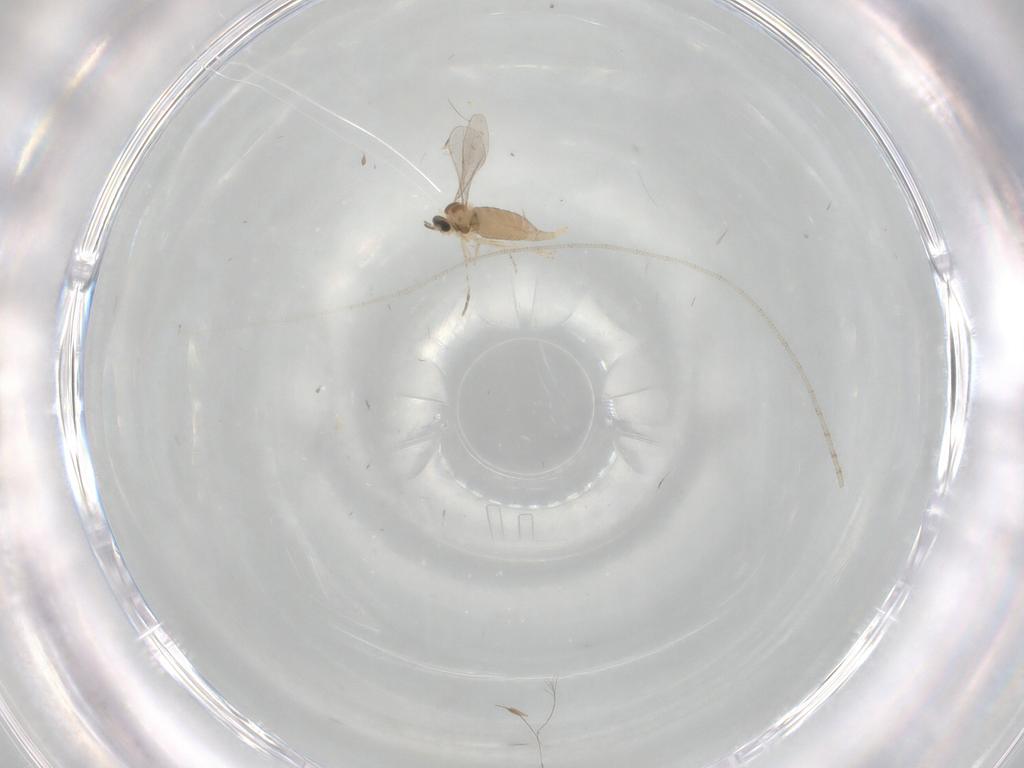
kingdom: Animalia
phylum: Arthropoda
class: Insecta
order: Diptera
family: Cecidomyiidae
